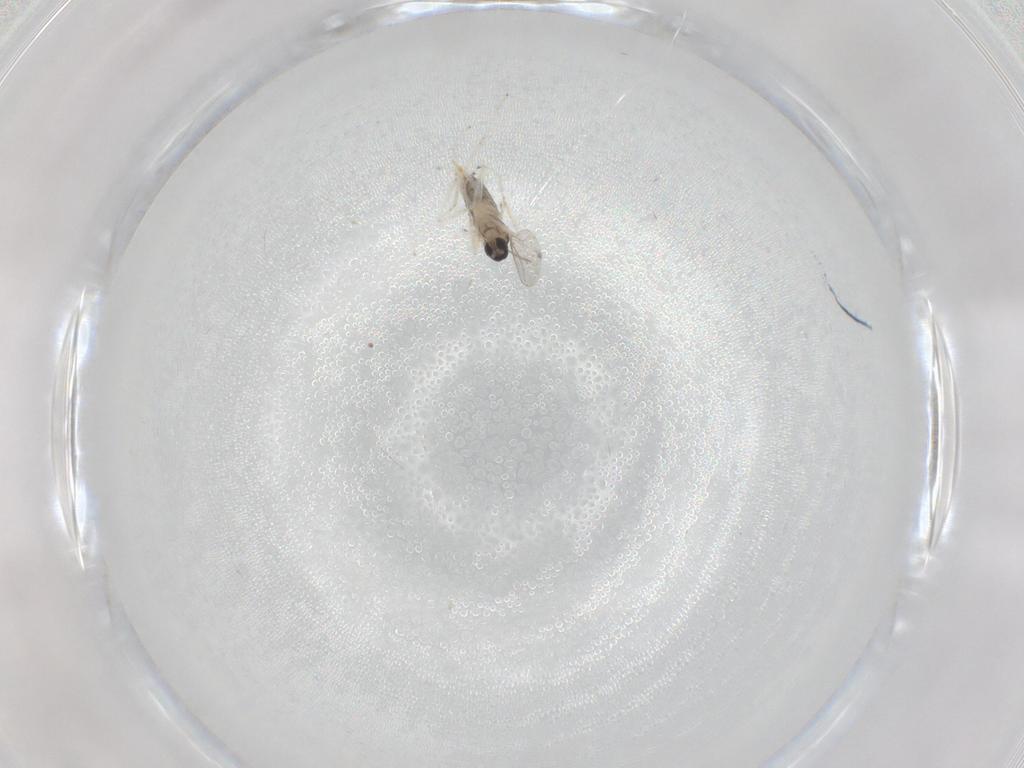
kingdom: Animalia
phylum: Arthropoda
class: Insecta
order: Diptera
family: Cecidomyiidae
